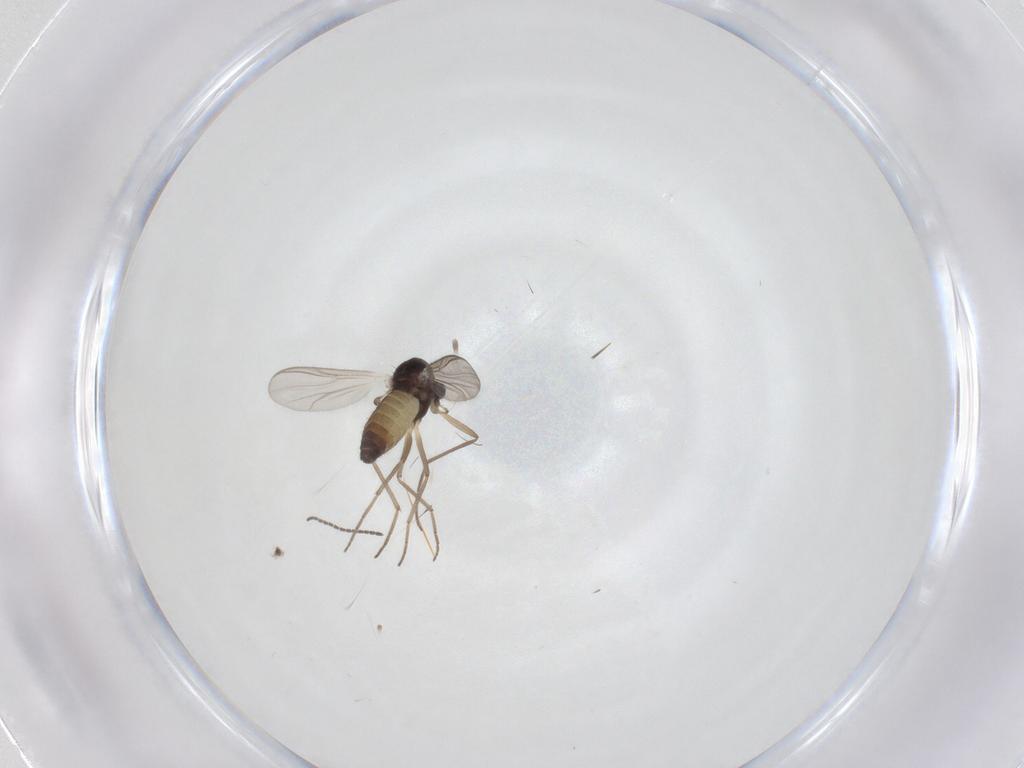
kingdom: Animalia
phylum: Arthropoda
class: Insecta
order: Diptera
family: Chironomidae
